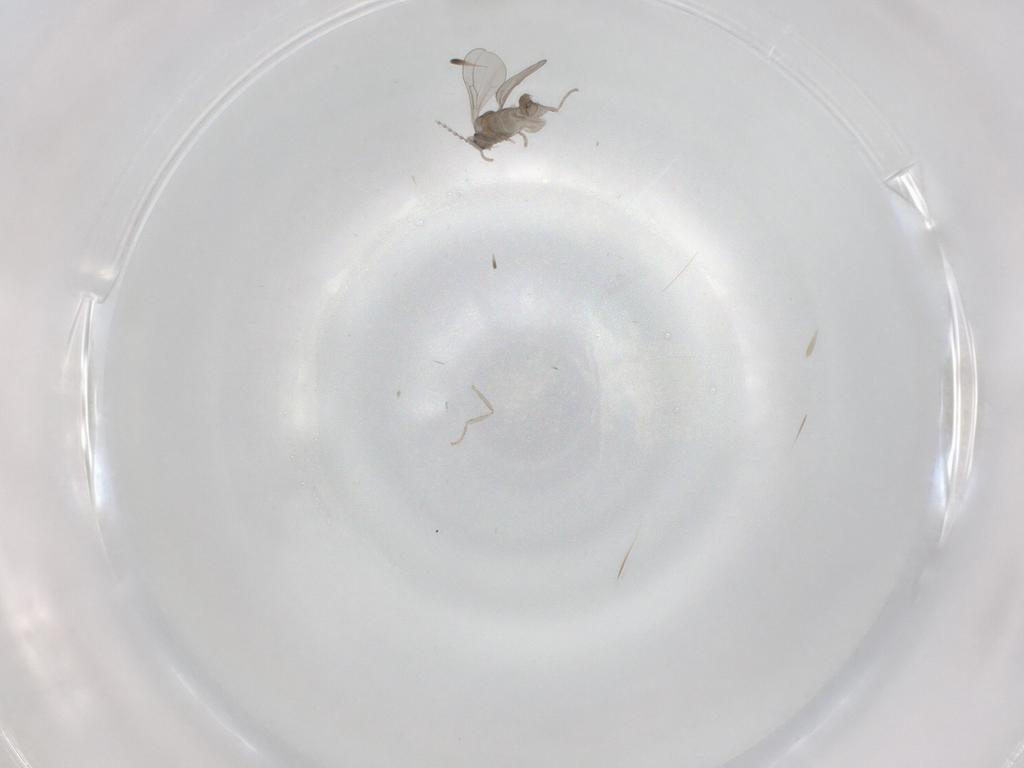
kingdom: Animalia
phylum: Arthropoda
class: Insecta
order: Diptera
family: Cecidomyiidae
